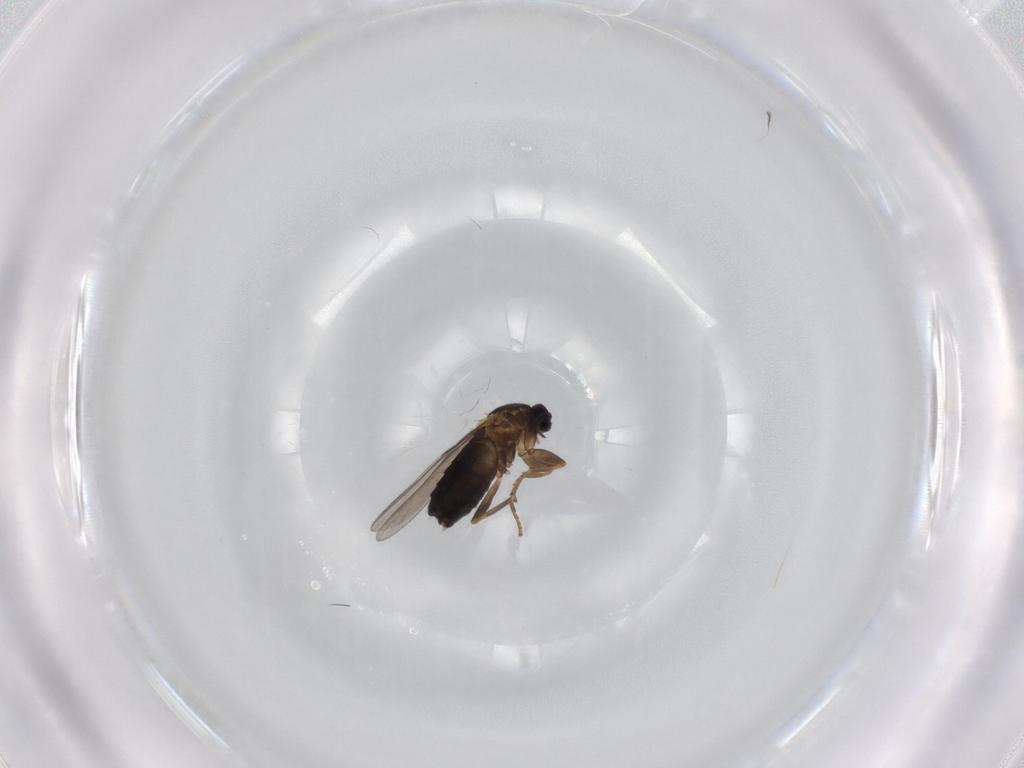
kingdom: Animalia
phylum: Arthropoda
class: Insecta
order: Diptera
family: Scatopsidae
